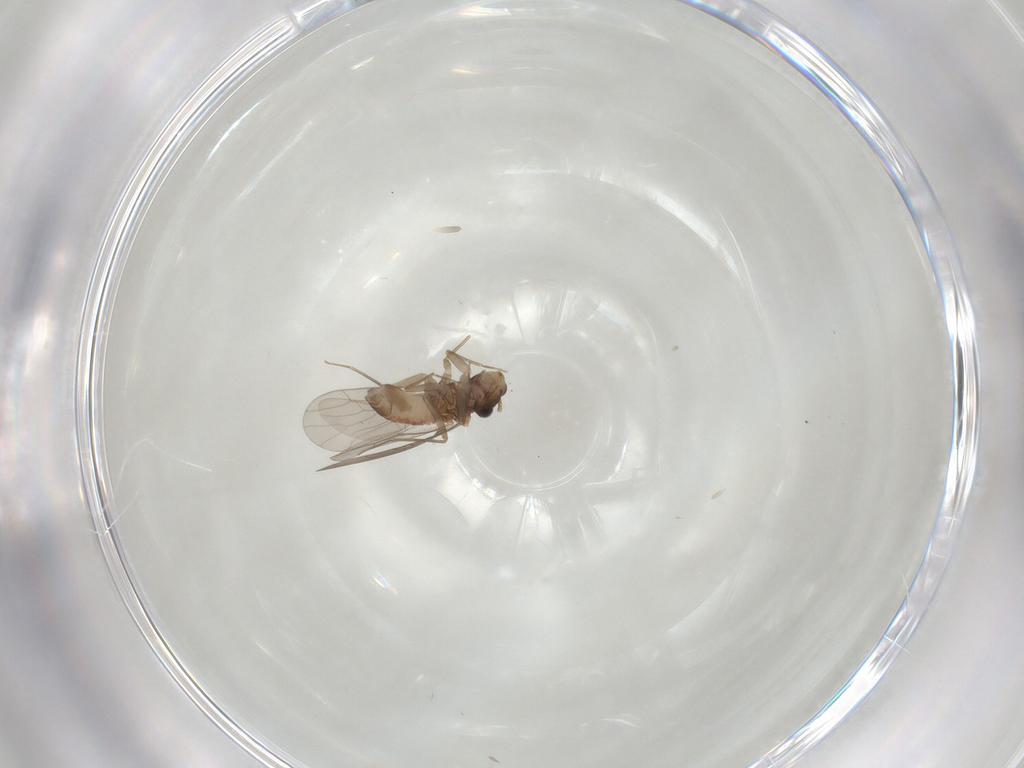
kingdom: Animalia
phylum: Arthropoda
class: Insecta
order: Psocodea
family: Lepidopsocidae
